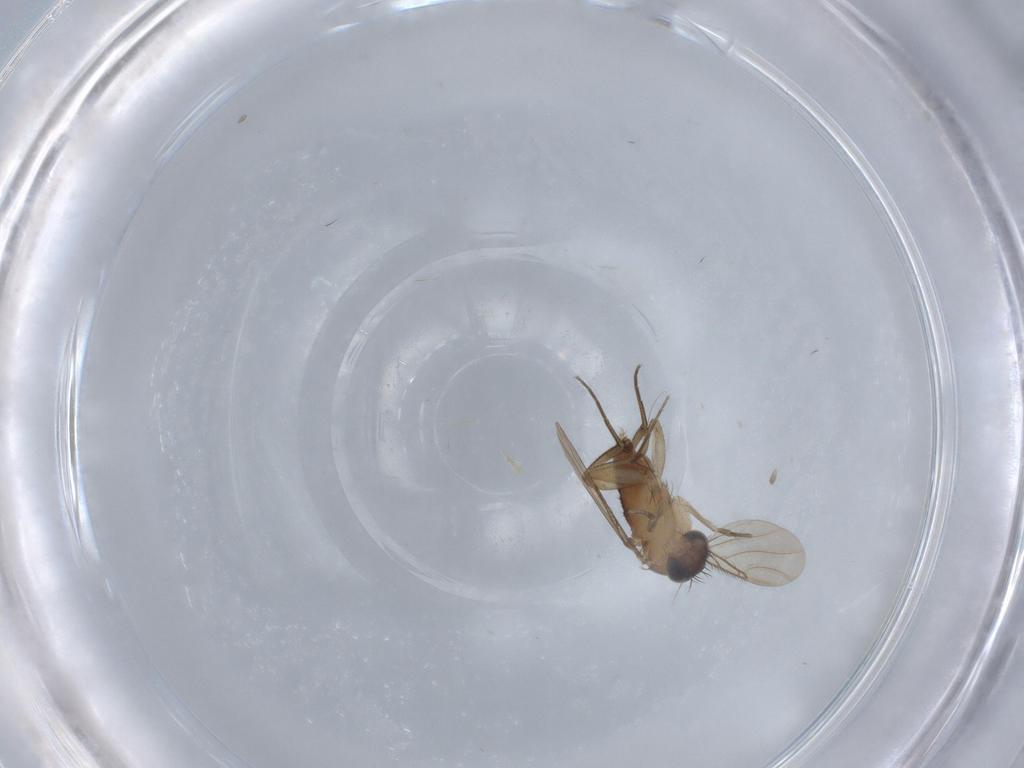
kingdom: Animalia
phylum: Arthropoda
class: Insecta
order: Diptera
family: Phoridae
